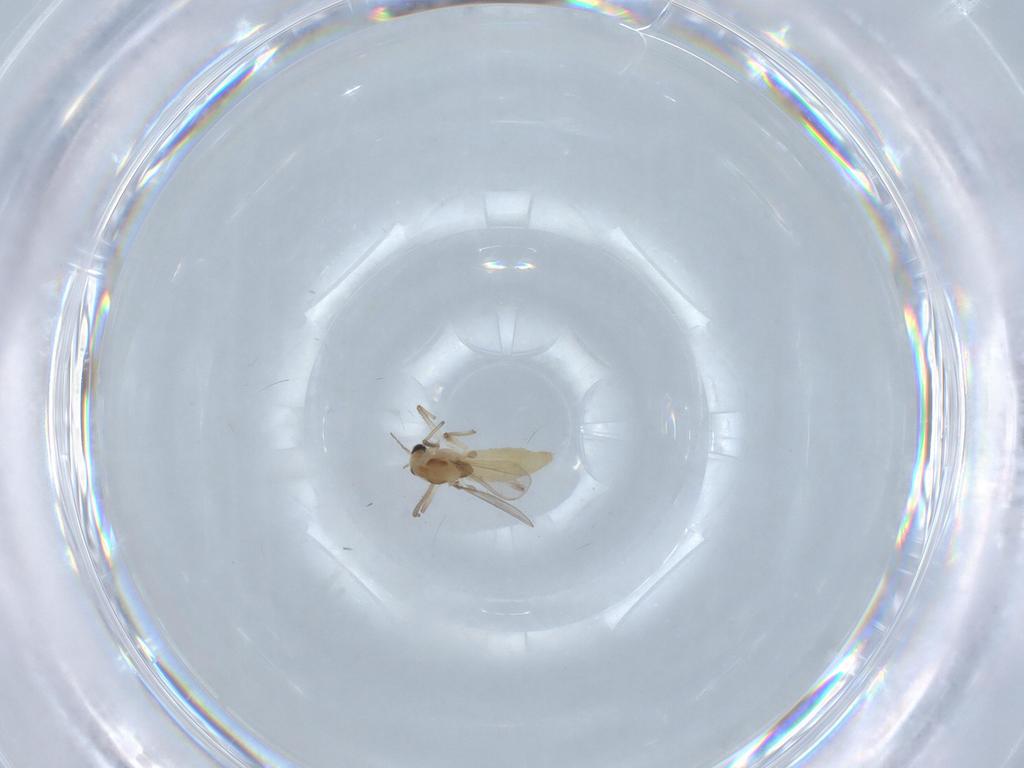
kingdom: Animalia
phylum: Arthropoda
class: Insecta
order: Diptera
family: Chironomidae
